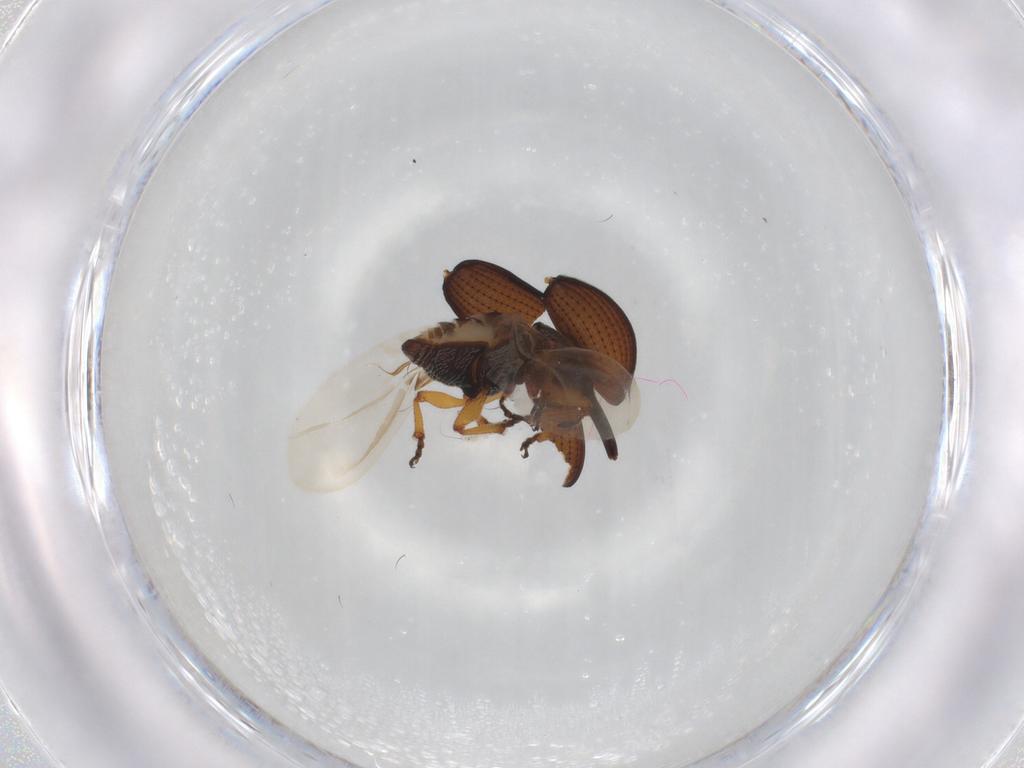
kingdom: Animalia
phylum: Arthropoda
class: Insecta
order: Coleoptera
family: Brentidae
